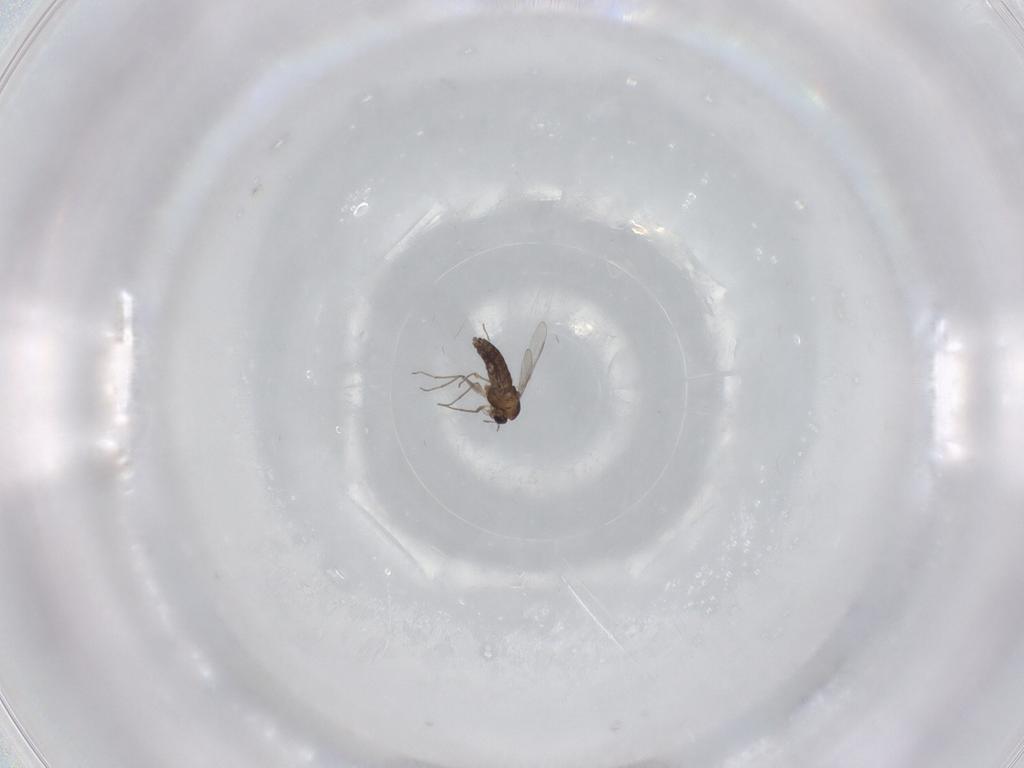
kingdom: Animalia
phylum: Arthropoda
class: Insecta
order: Diptera
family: Chironomidae
